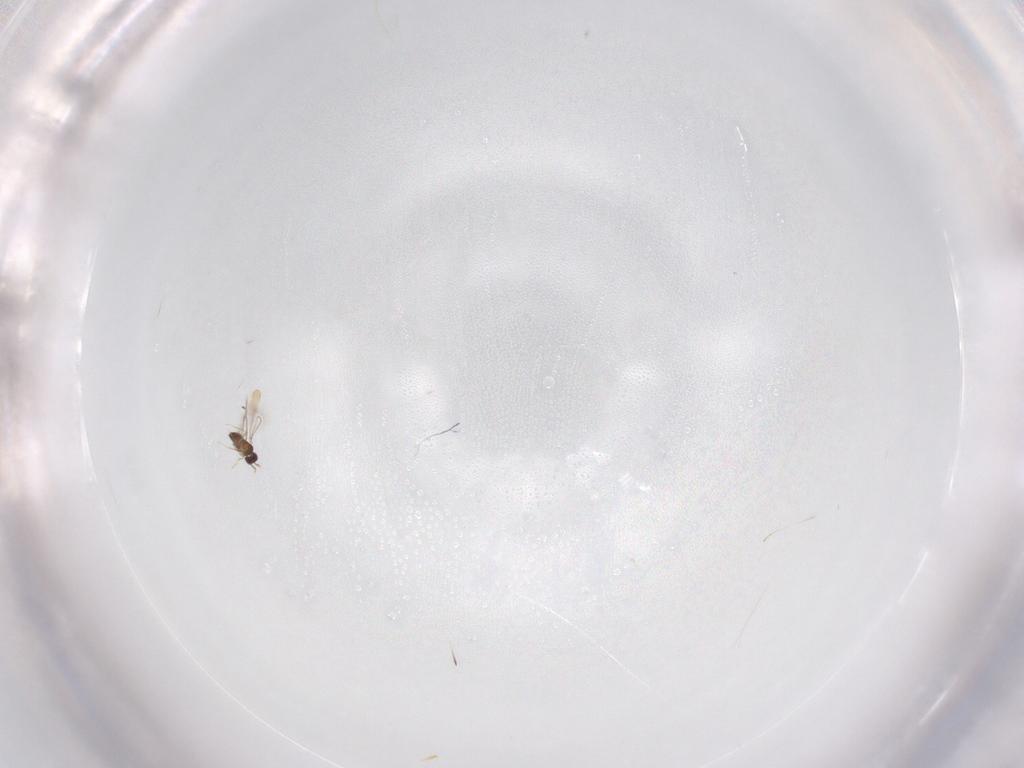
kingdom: Animalia
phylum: Arthropoda
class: Insecta
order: Hymenoptera
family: Mymaridae
